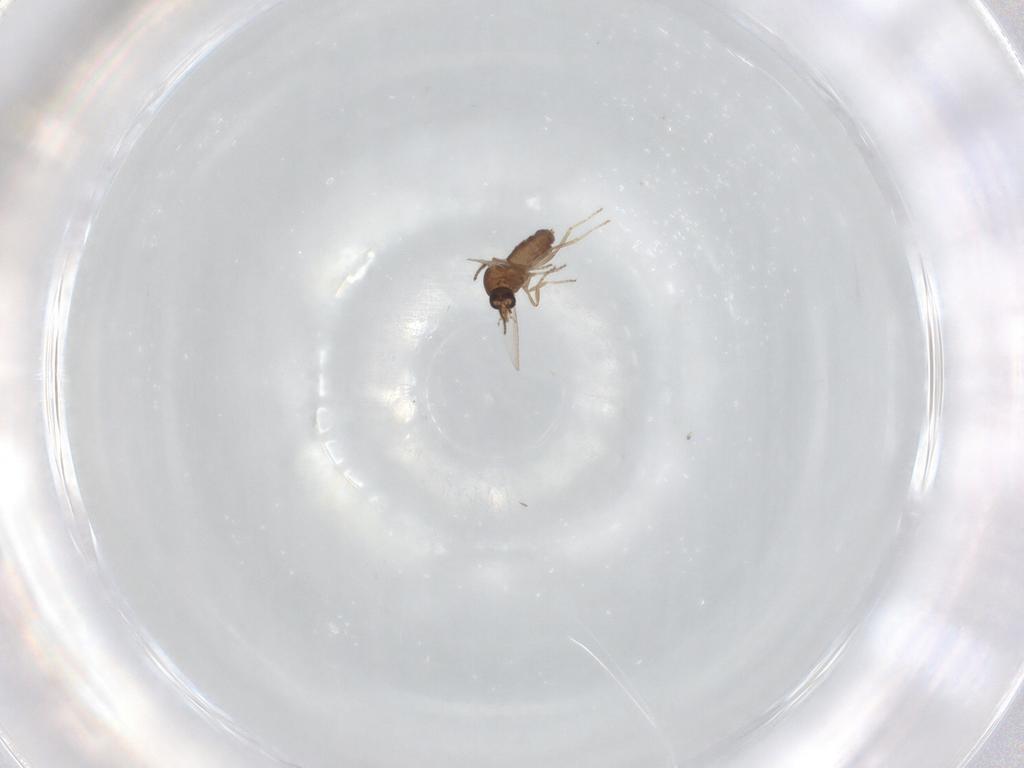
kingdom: Animalia
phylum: Arthropoda
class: Insecta
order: Diptera
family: Ceratopogonidae
